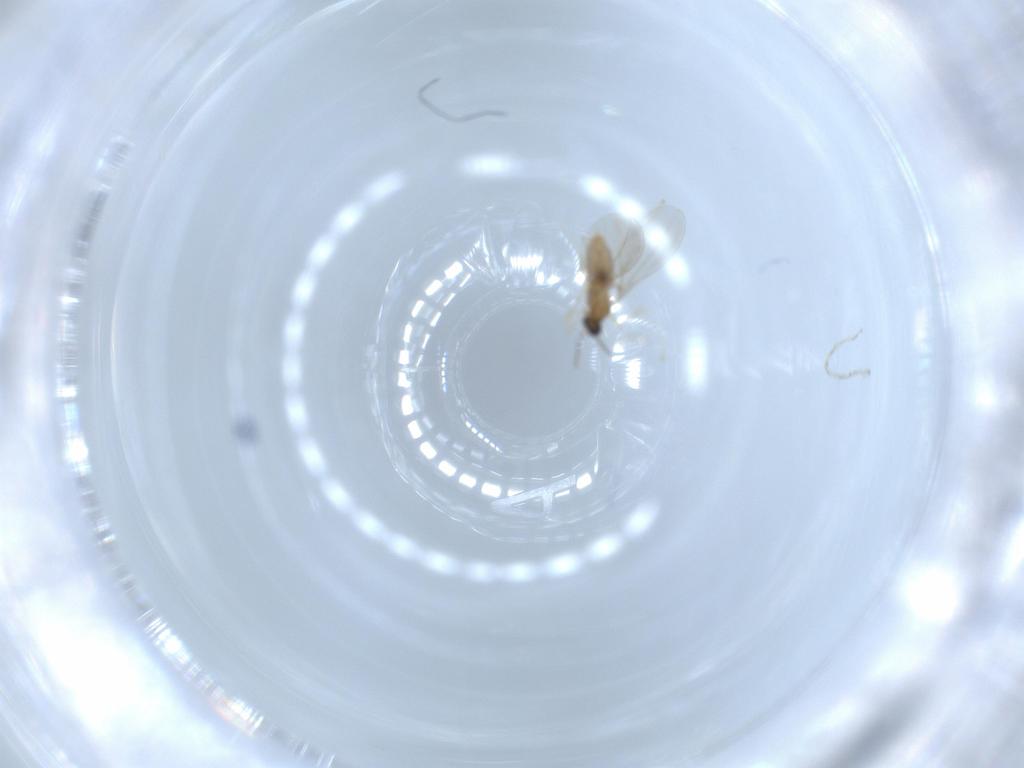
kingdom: Animalia
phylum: Arthropoda
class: Insecta
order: Diptera
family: Cecidomyiidae
